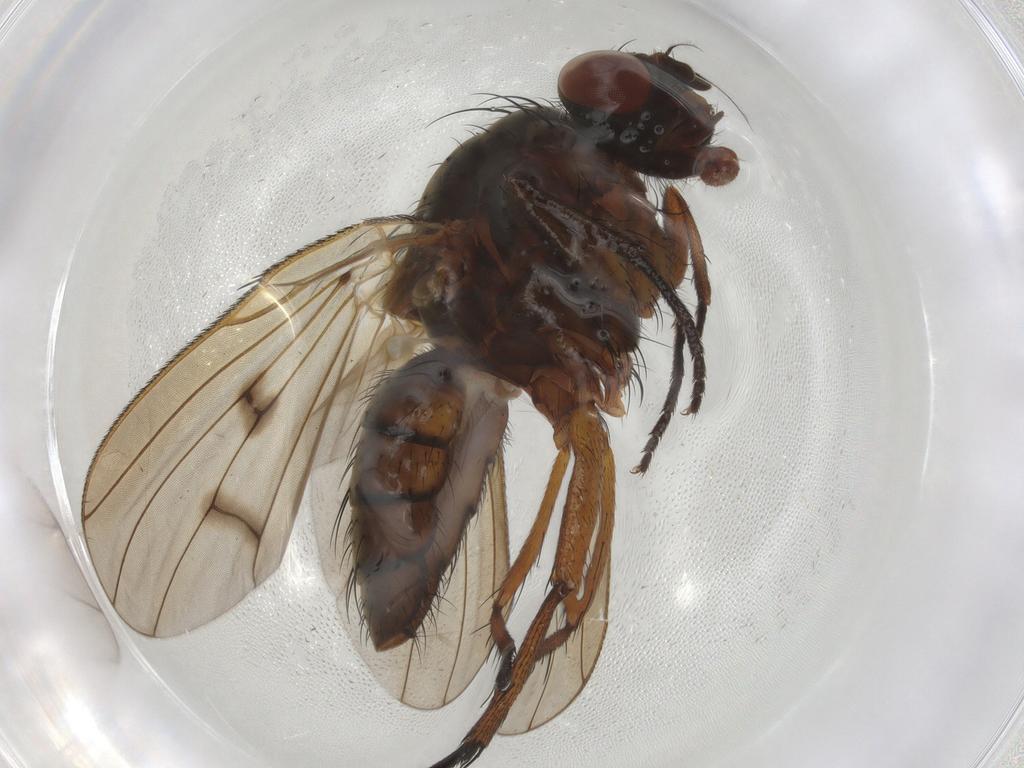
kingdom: Animalia
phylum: Arthropoda
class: Insecta
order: Diptera
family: Anthomyiidae
